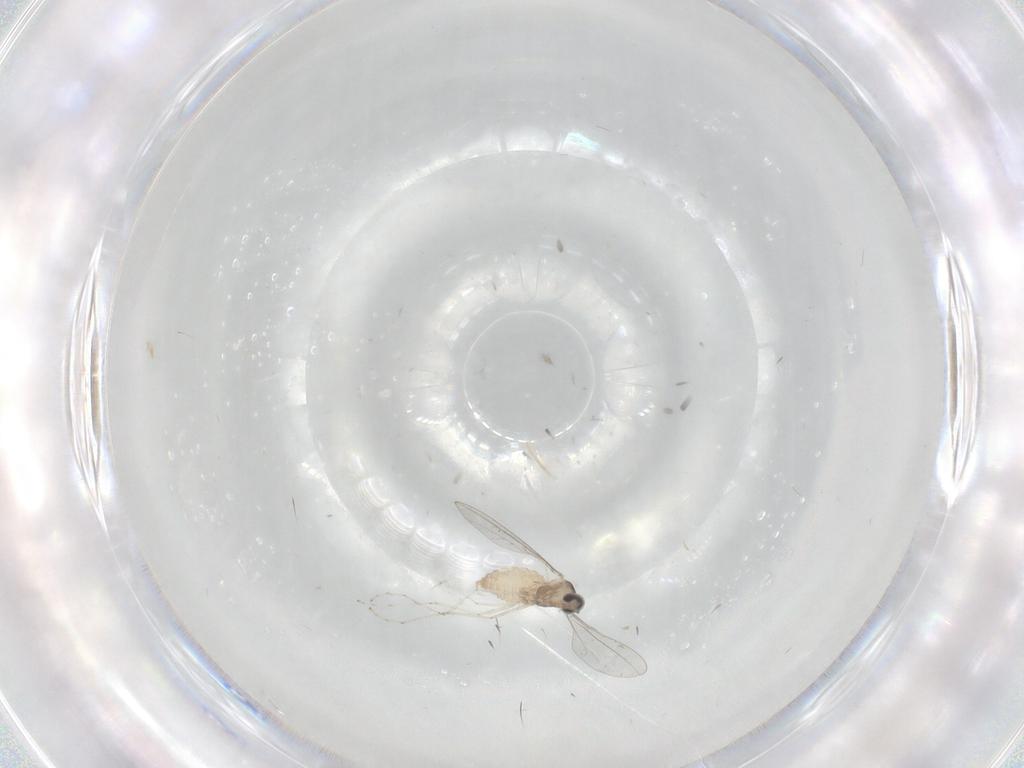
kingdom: Animalia
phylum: Arthropoda
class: Insecta
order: Diptera
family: Cecidomyiidae
